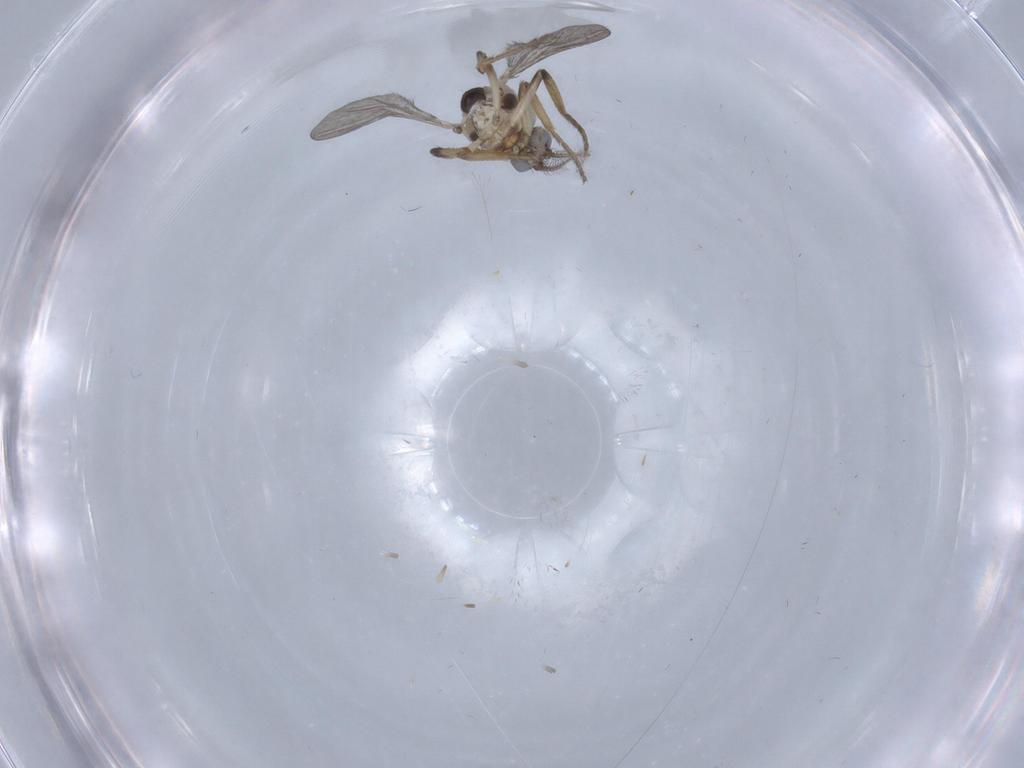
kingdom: Animalia
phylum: Arthropoda
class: Insecta
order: Diptera
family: Ceratopogonidae
